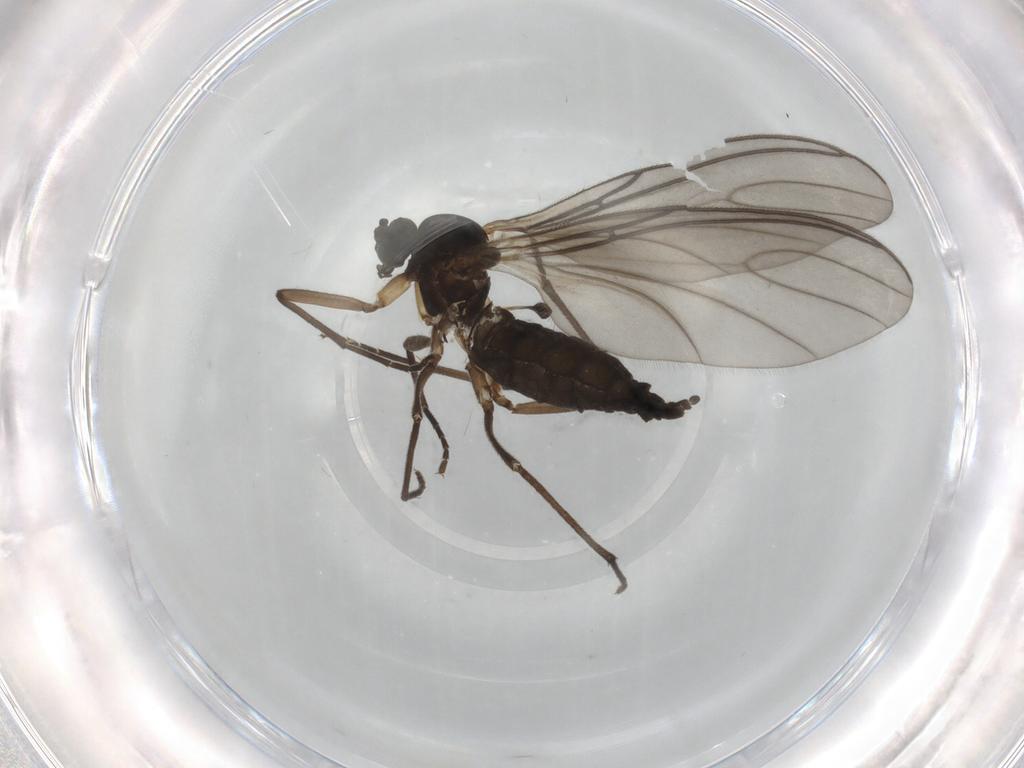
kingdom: Animalia
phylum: Arthropoda
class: Insecta
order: Diptera
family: Sciaridae
